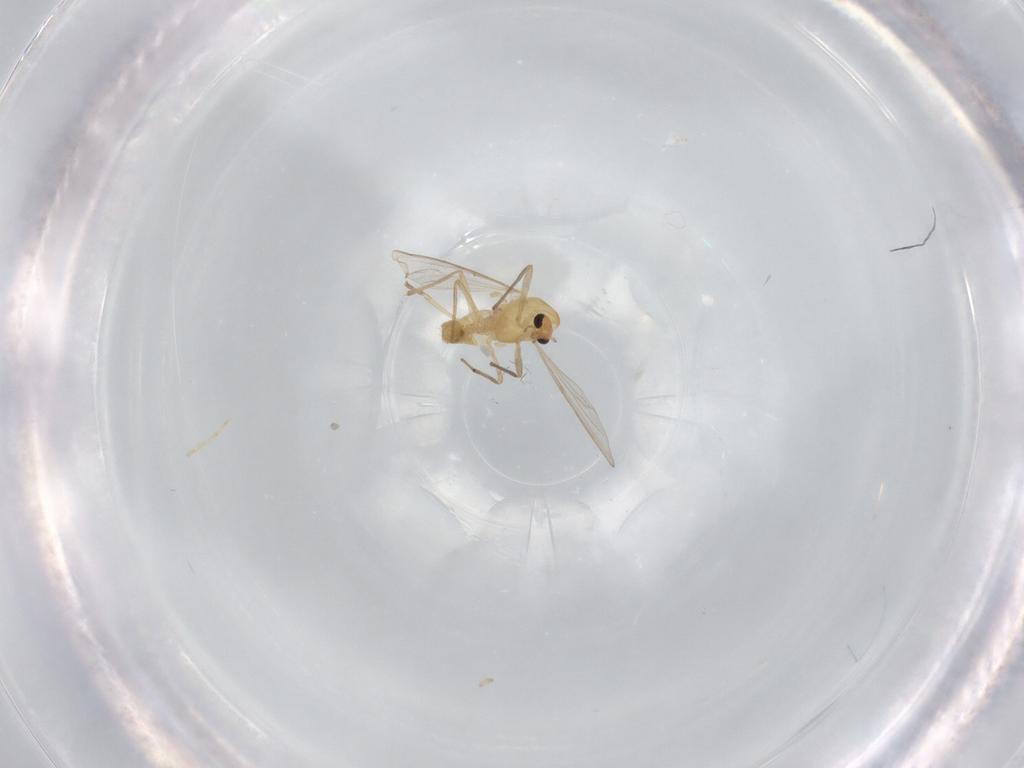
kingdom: Animalia
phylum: Arthropoda
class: Insecta
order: Diptera
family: Chironomidae
